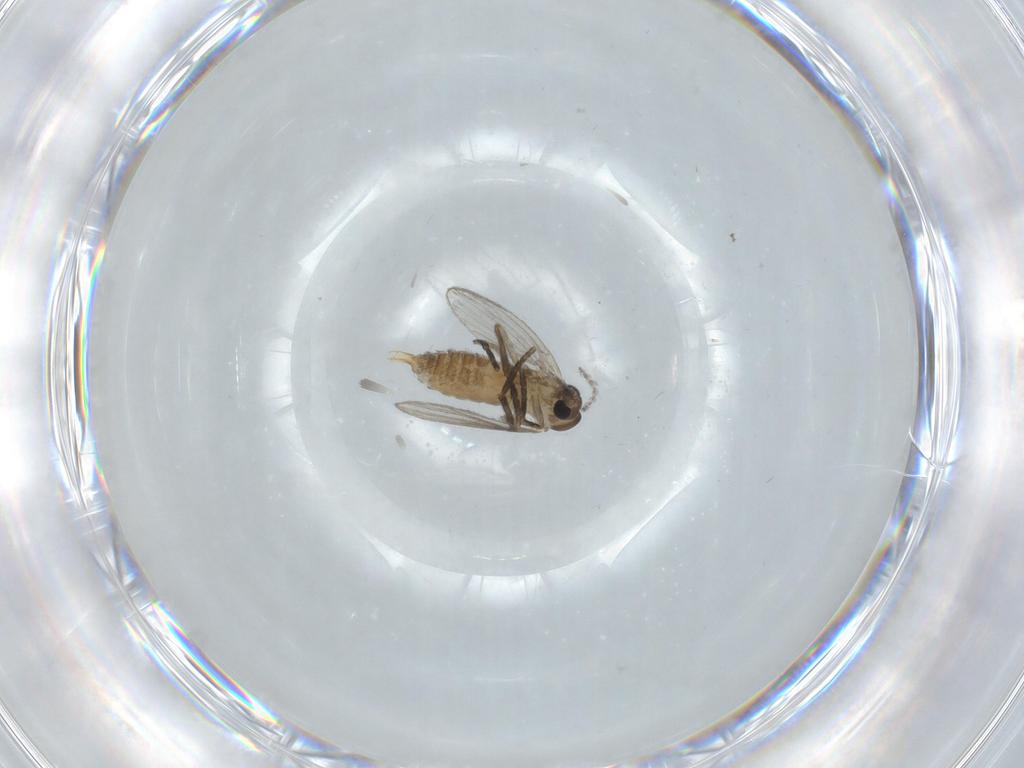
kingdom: Animalia
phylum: Arthropoda
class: Insecta
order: Diptera
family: Psychodidae
